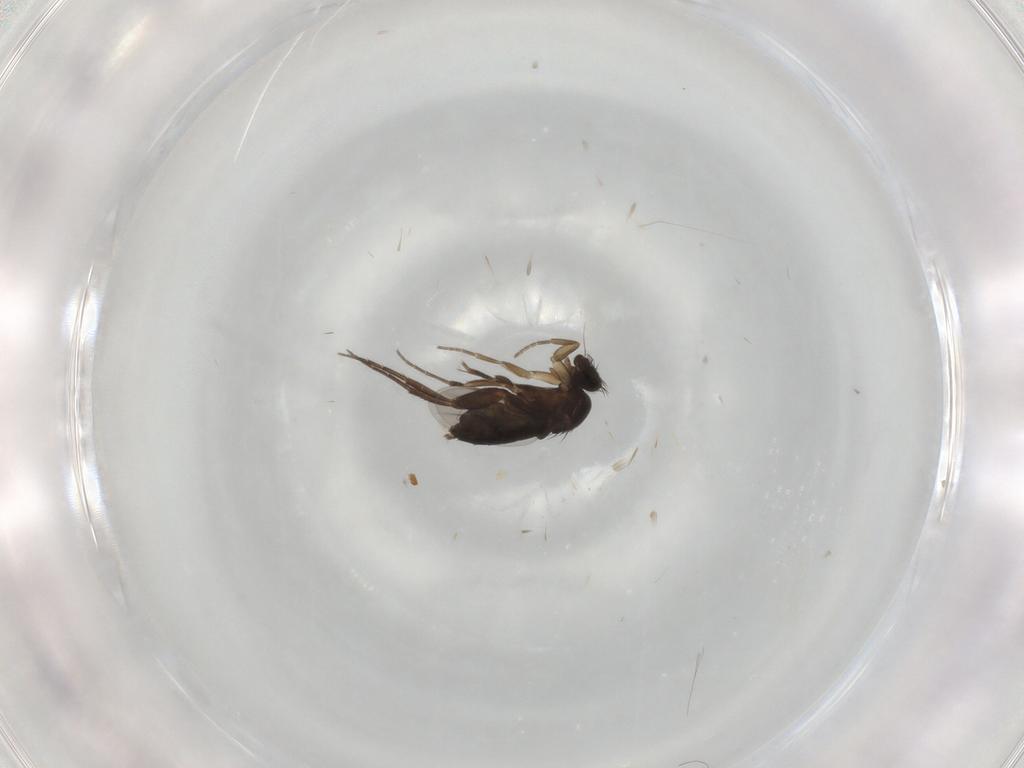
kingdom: Animalia
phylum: Arthropoda
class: Insecta
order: Diptera
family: Phoridae
